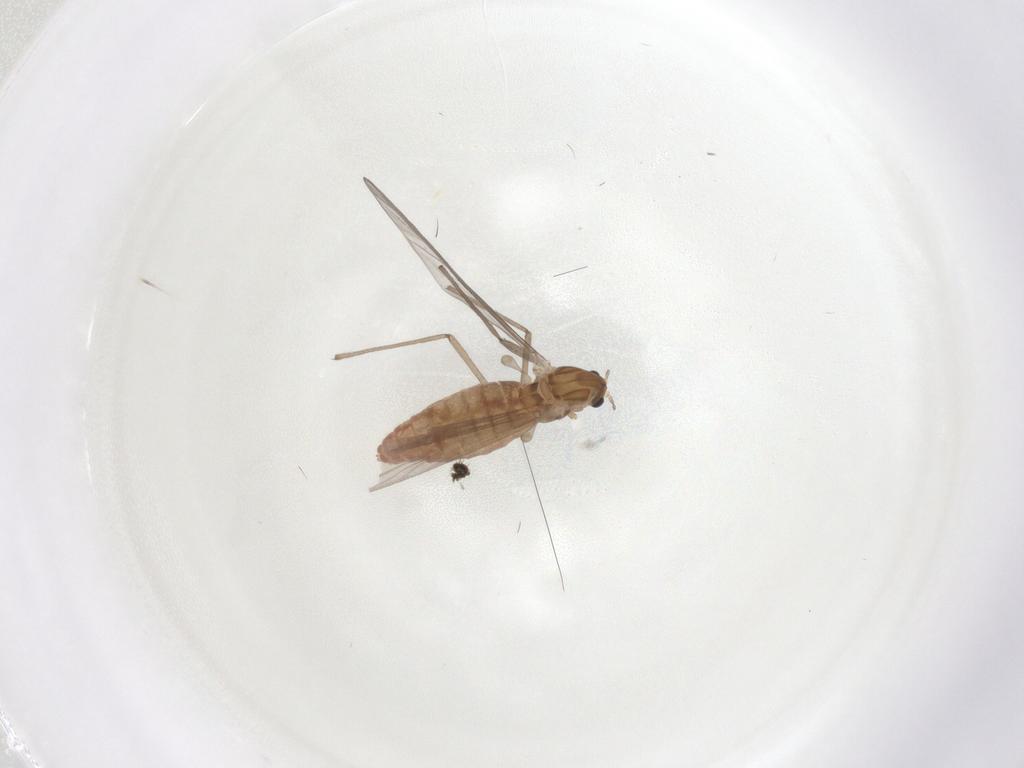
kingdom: Animalia
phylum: Arthropoda
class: Insecta
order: Diptera
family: Chironomidae
